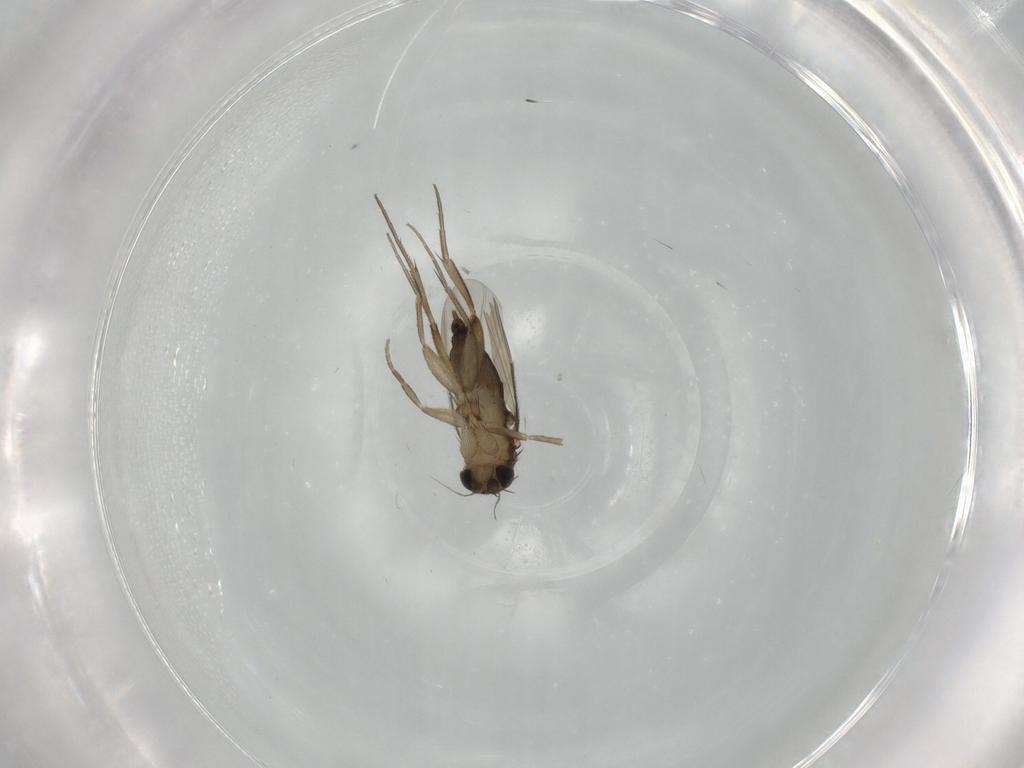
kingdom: Animalia
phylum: Arthropoda
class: Insecta
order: Diptera
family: Phoridae
